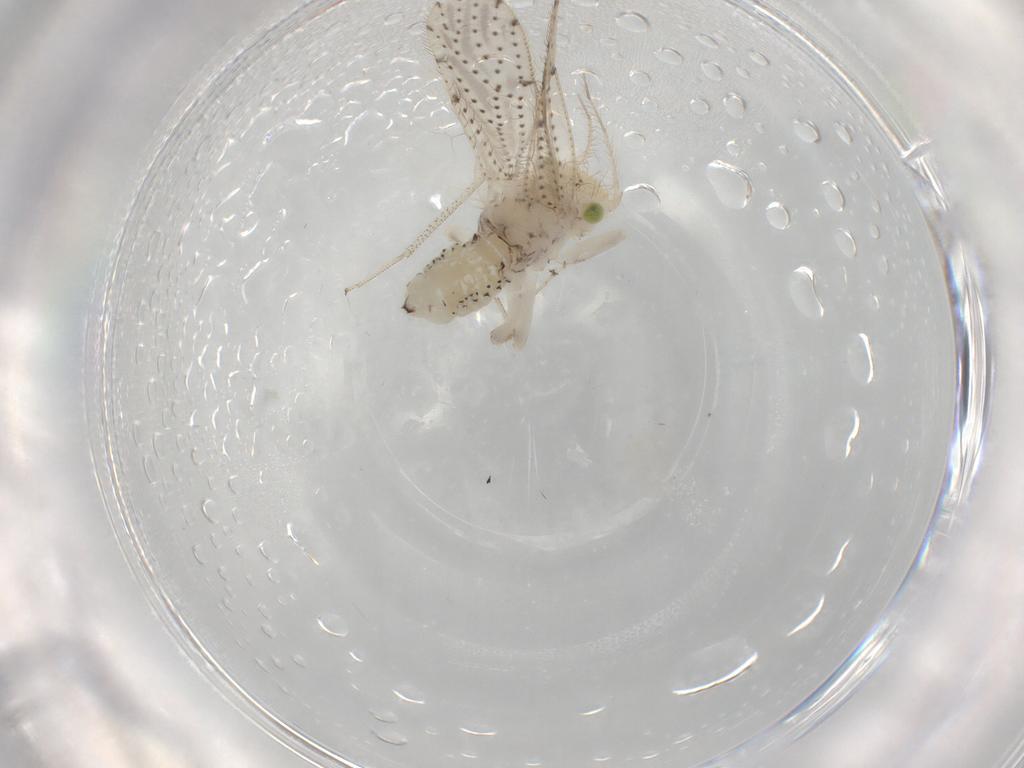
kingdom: Animalia
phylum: Arthropoda
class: Insecta
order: Psocodea
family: Myopsocidae
